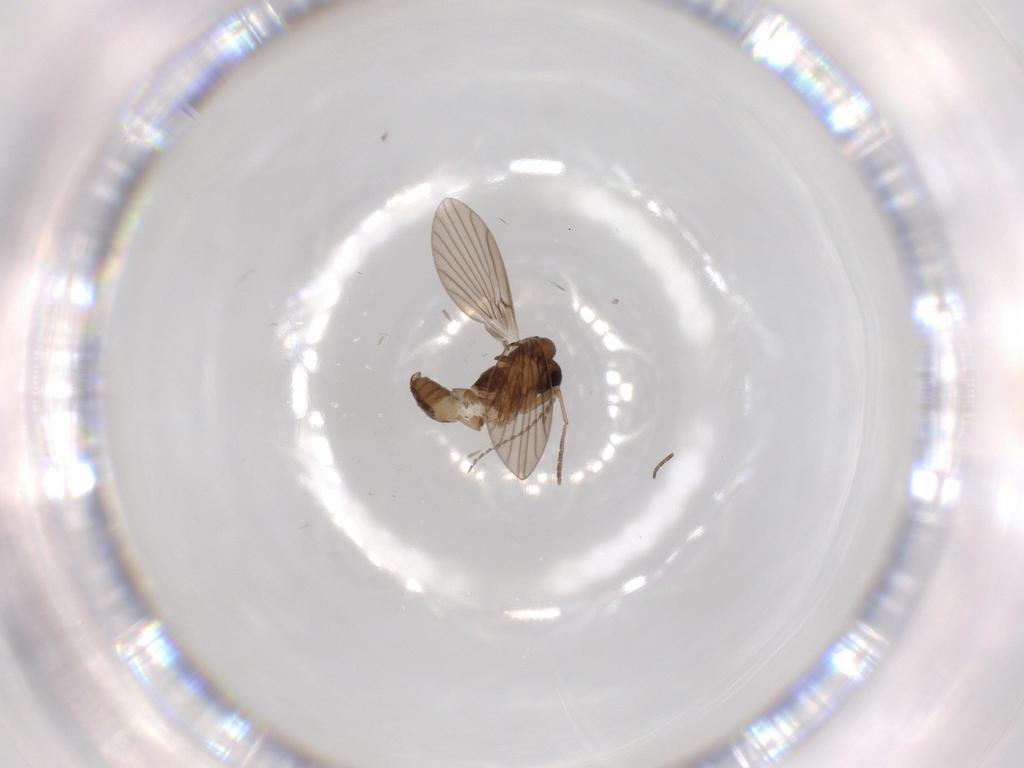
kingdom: Animalia
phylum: Arthropoda
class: Insecta
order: Diptera
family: Psychodidae
